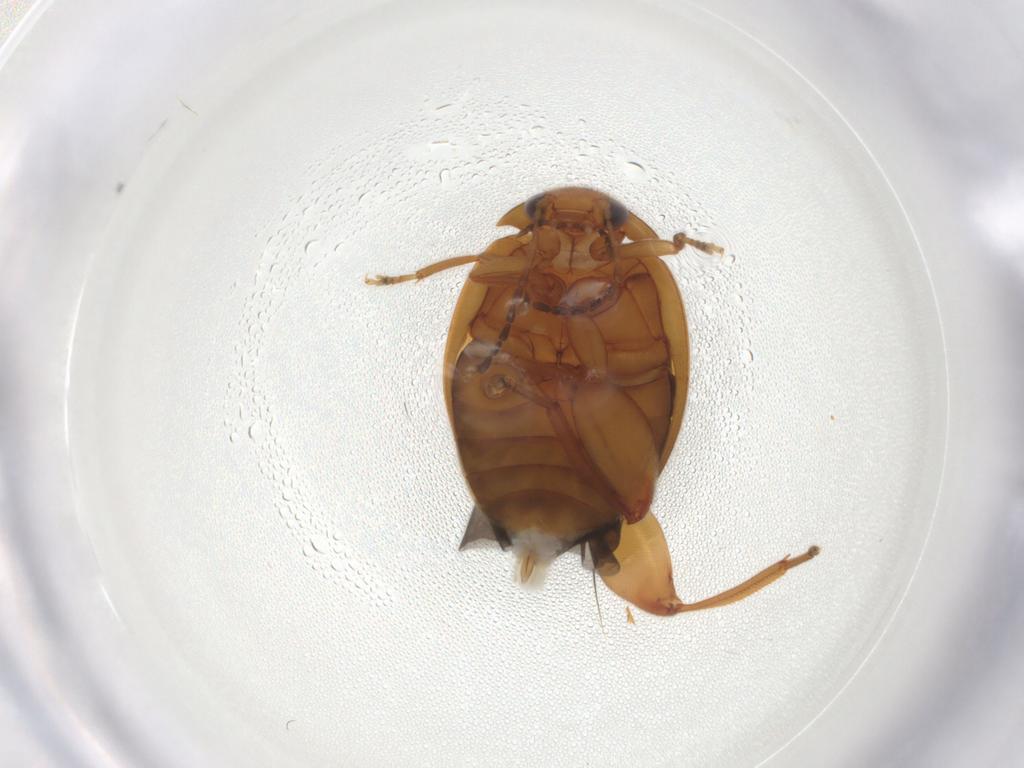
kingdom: Animalia
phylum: Arthropoda
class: Insecta
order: Coleoptera
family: Scirtidae
